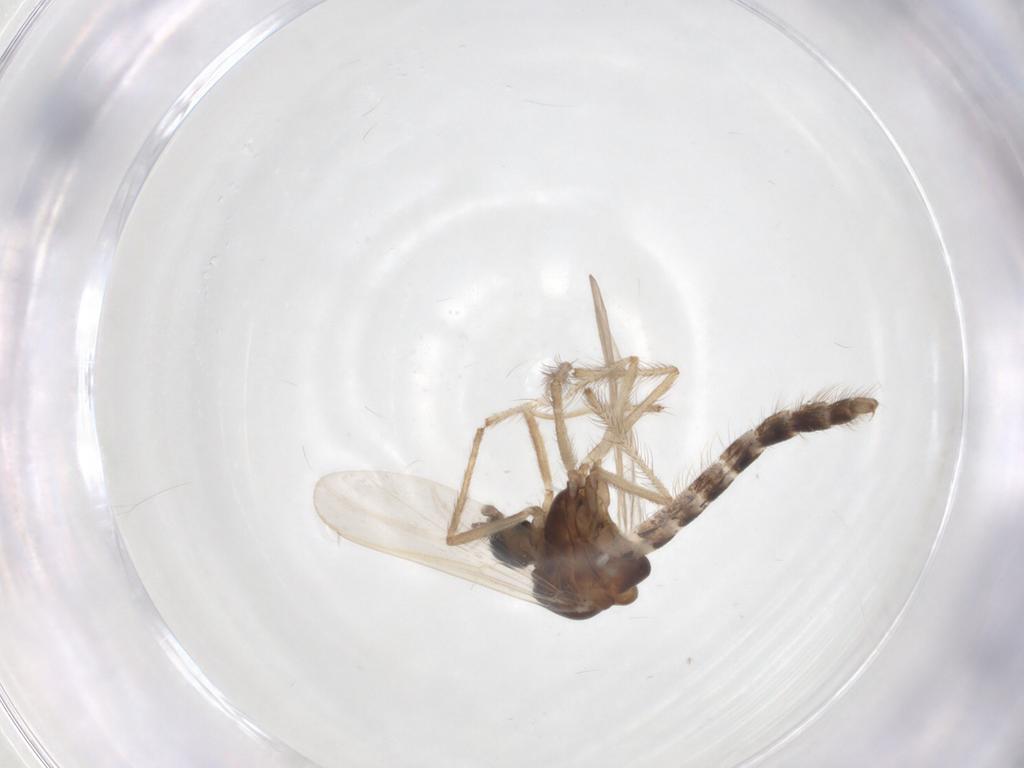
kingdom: Animalia
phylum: Arthropoda
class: Insecta
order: Diptera
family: Chironomidae
